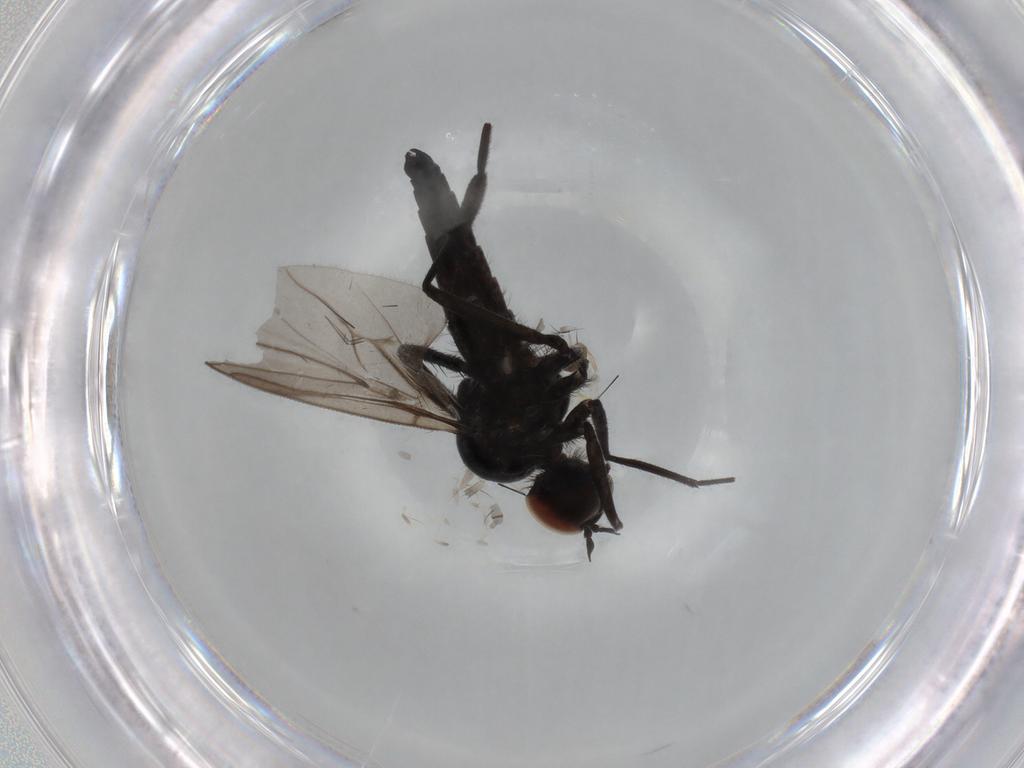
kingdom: Animalia
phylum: Arthropoda
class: Insecta
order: Diptera
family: Hybotidae
